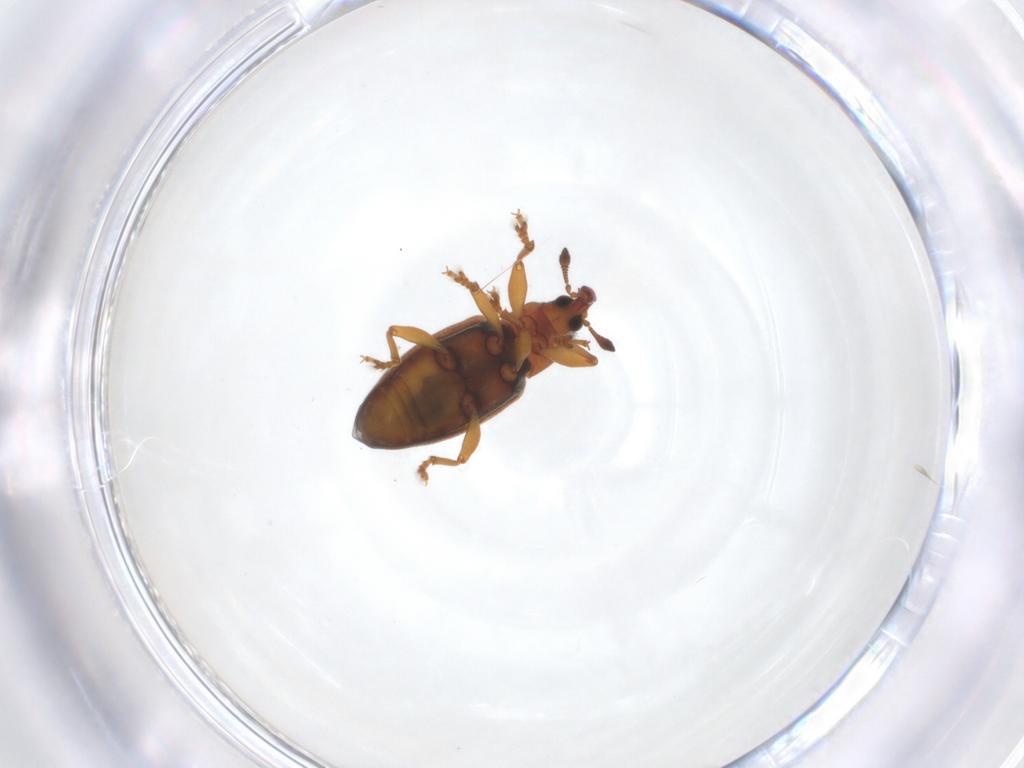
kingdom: Animalia
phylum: Arthropoda
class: Insecta
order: Coleoptera
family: Curculionidae
